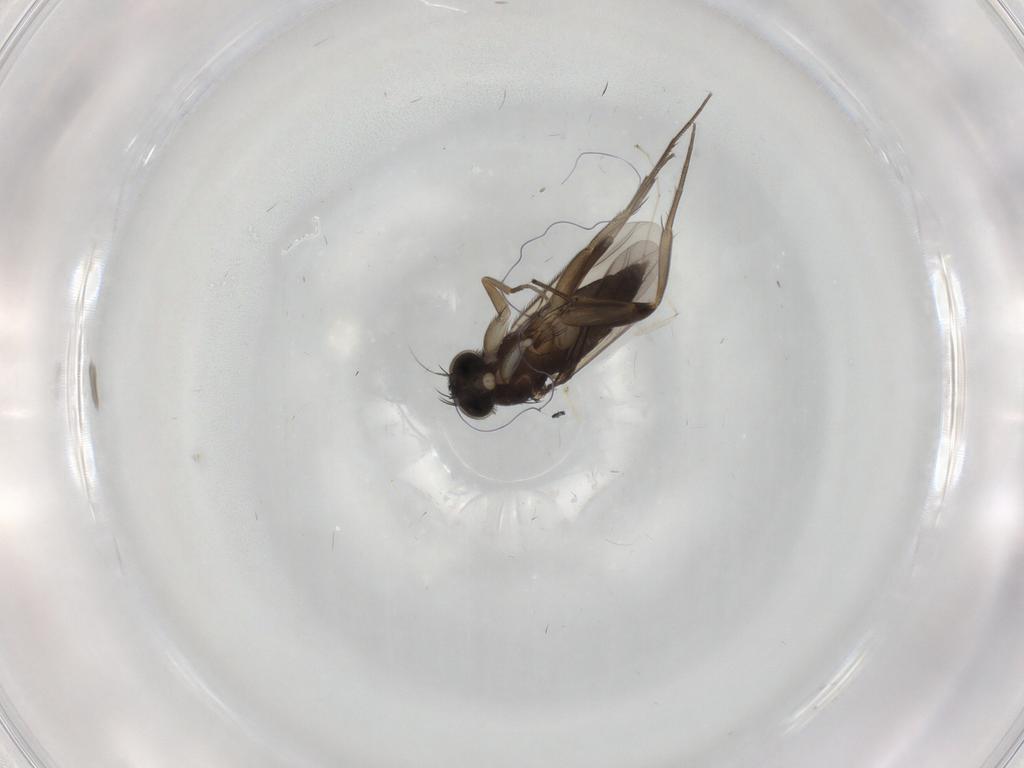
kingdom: Animalia
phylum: Arthropoda
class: Insecta
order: Diptera
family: Phoridae
